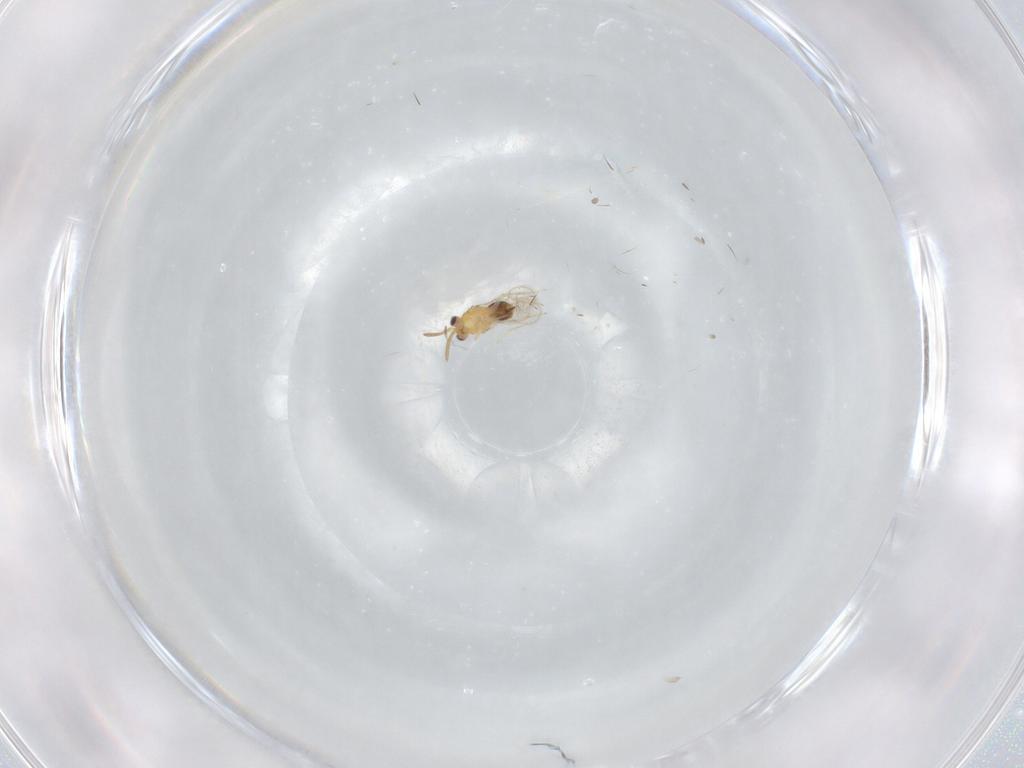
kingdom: Animalia
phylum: Arthropoda
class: Insecta
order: Hymenoptera
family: Aphelinidae
